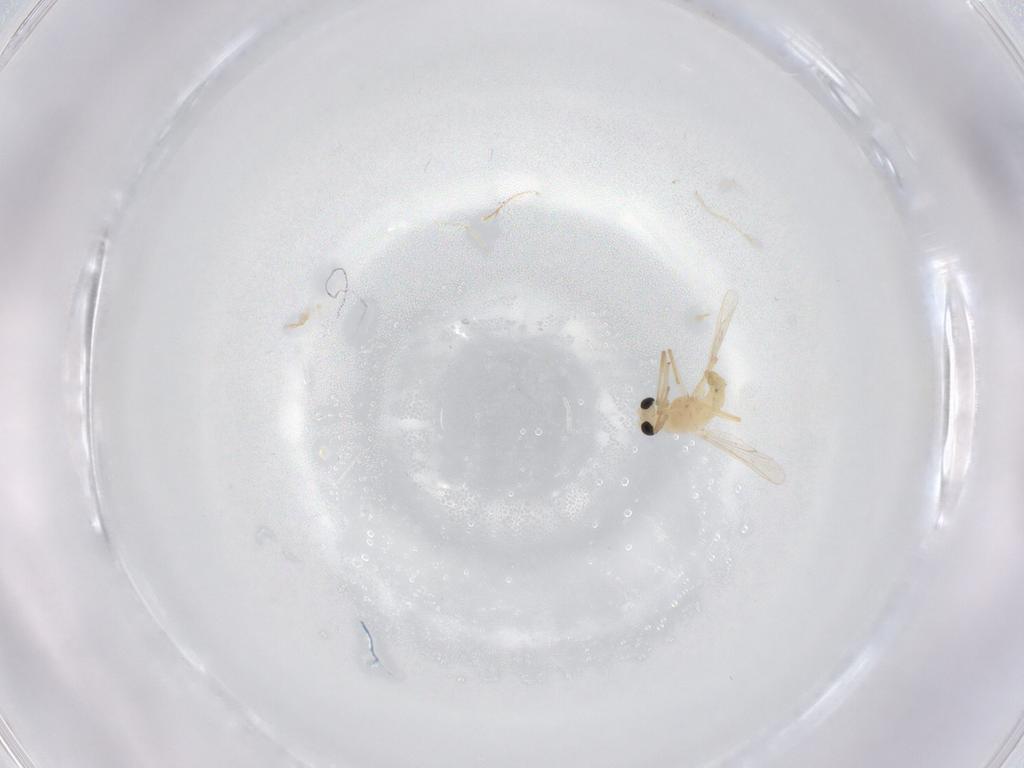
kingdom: Animalia
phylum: Arthropoda
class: Insecta
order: Diptera
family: Chironomidae
